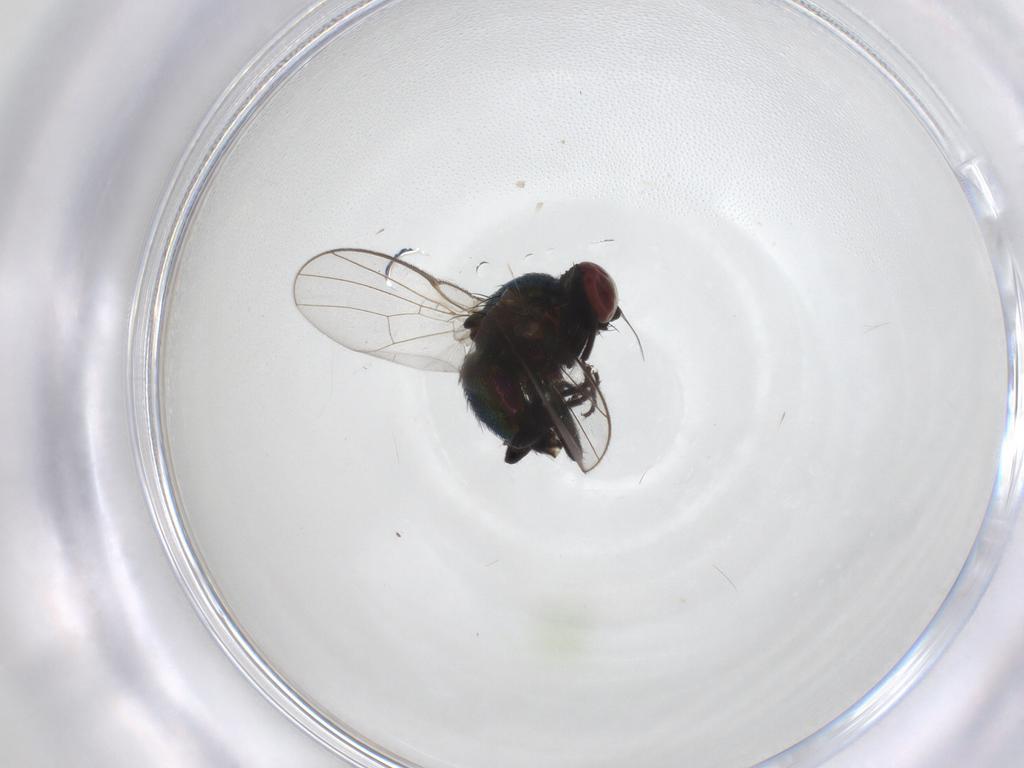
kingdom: Animalia
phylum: Arthropoda
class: Insecta
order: Diptera
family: Agromyzidae
